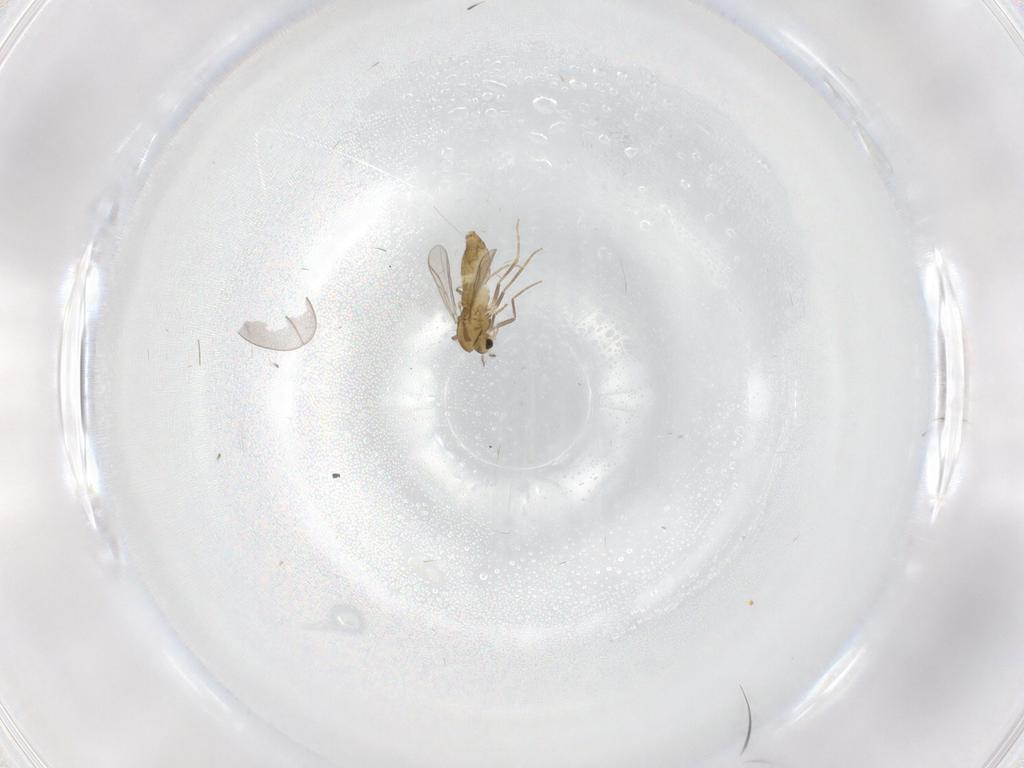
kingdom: Animalia
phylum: Arthropoda
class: Insecta
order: Diptera
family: Chironomidae
